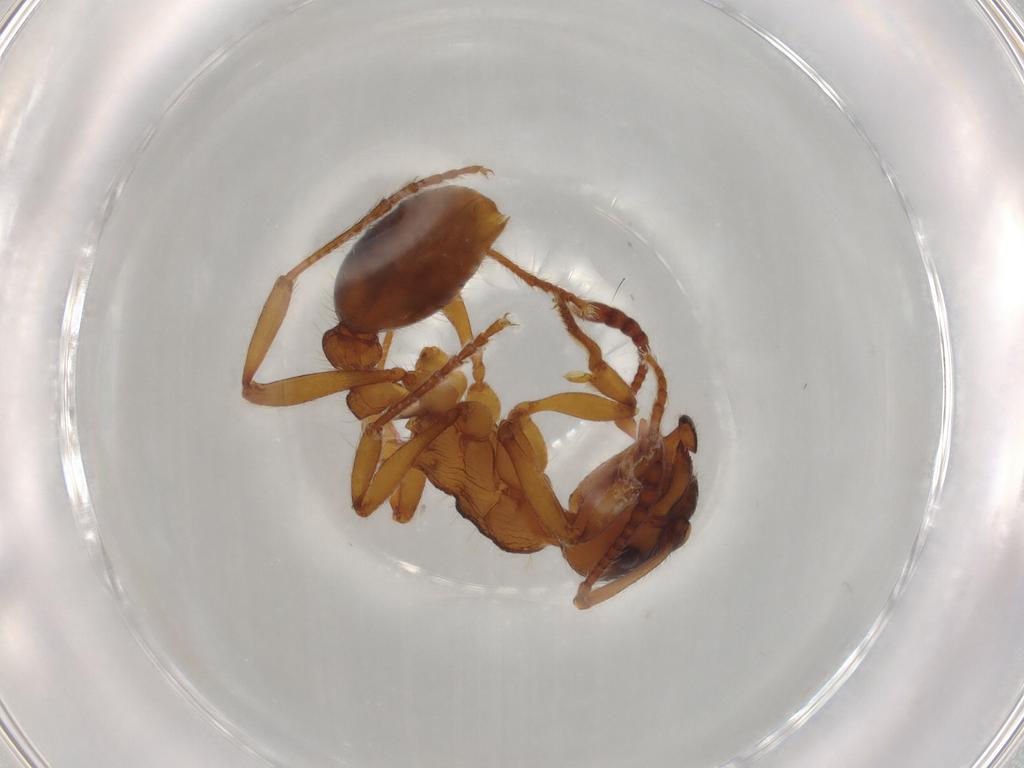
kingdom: Animalia
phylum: Arthropoda
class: Insecta
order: Hymenoptera
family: Formicidae
